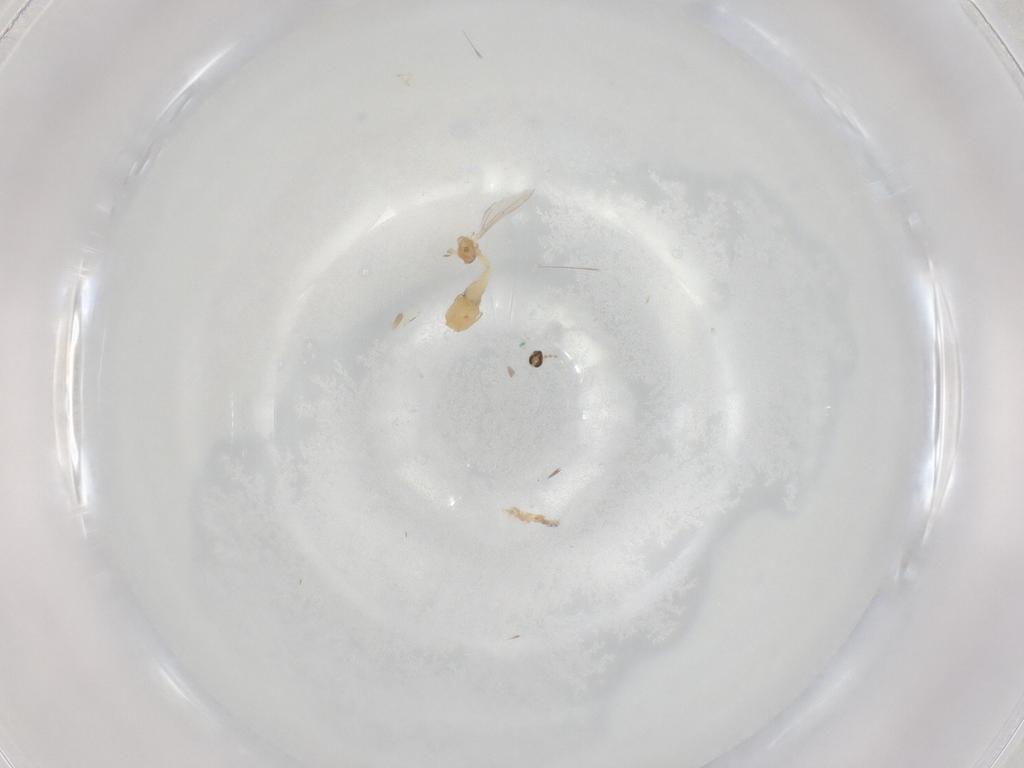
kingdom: Animalia
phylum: Arthropoda
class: Insecta
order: Diptera
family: Cecidomyiidae
